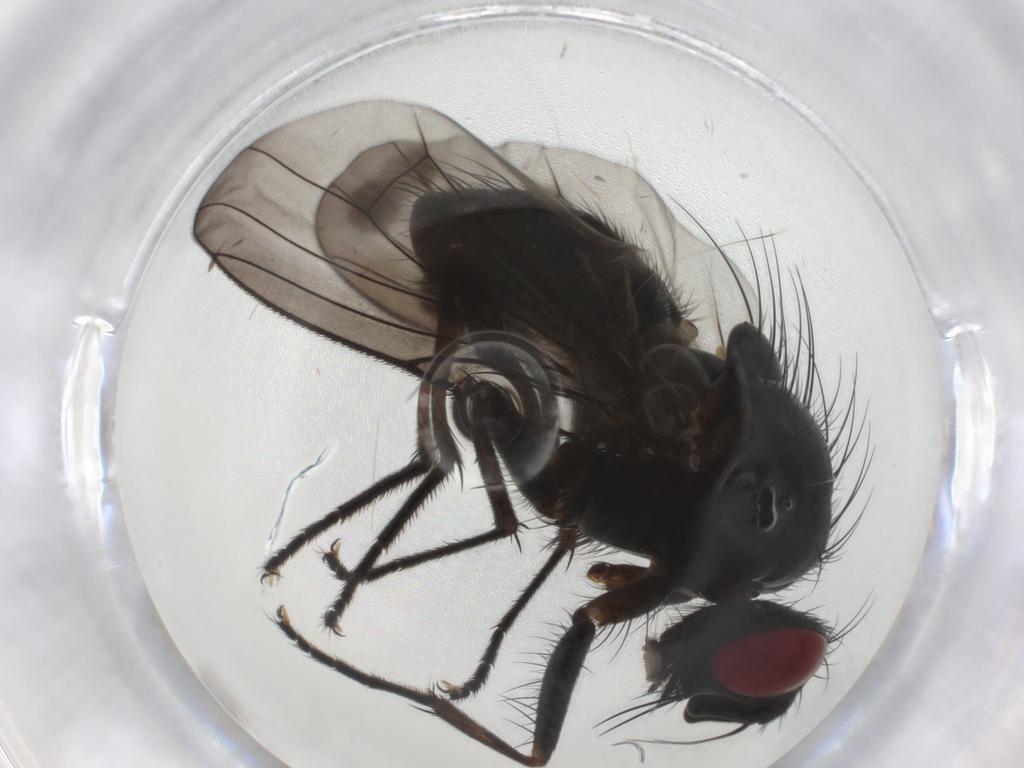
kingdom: Animalia
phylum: Arthropoda
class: Insecta
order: Diptera
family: Muscidae
